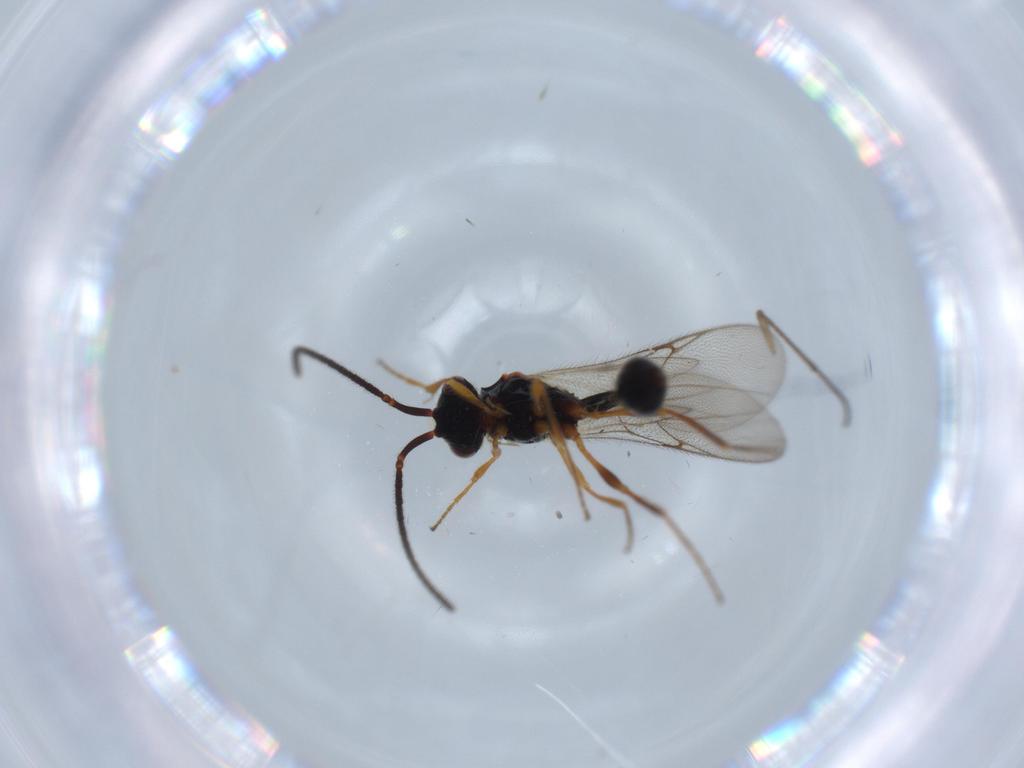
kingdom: Animalia
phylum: Arthropoda
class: Insecta
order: Hymenoptera
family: Diapriidae
